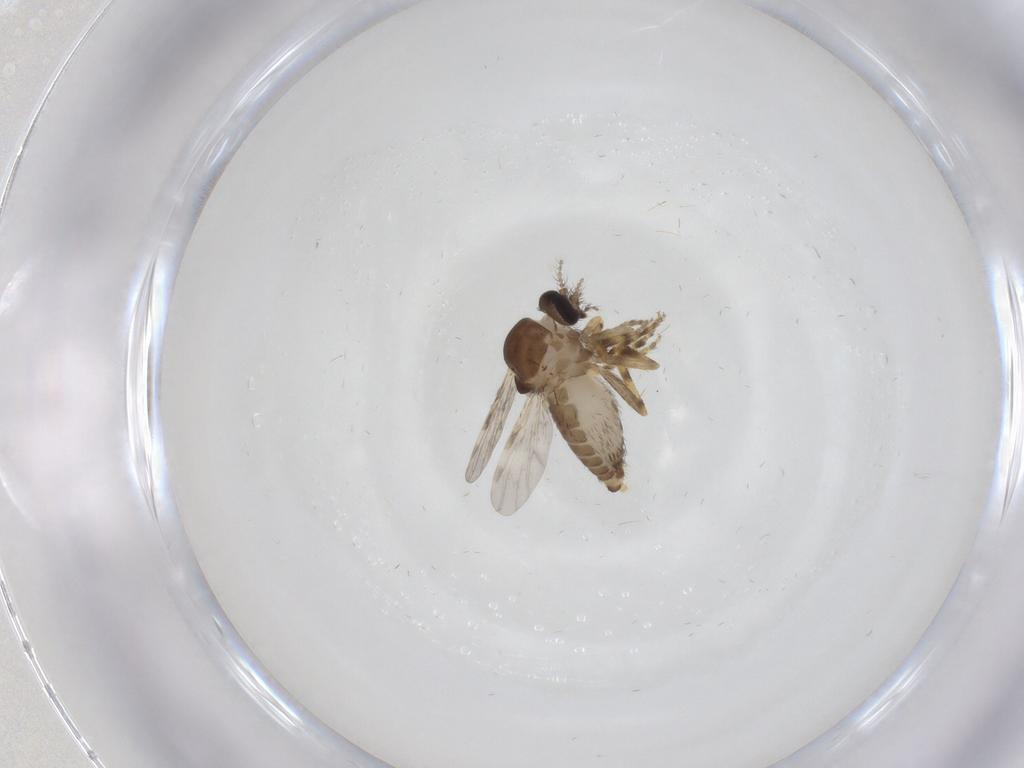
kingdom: Animalia
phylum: Arthropoda
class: Insecta
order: Diptera
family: Ceratopogonidae
